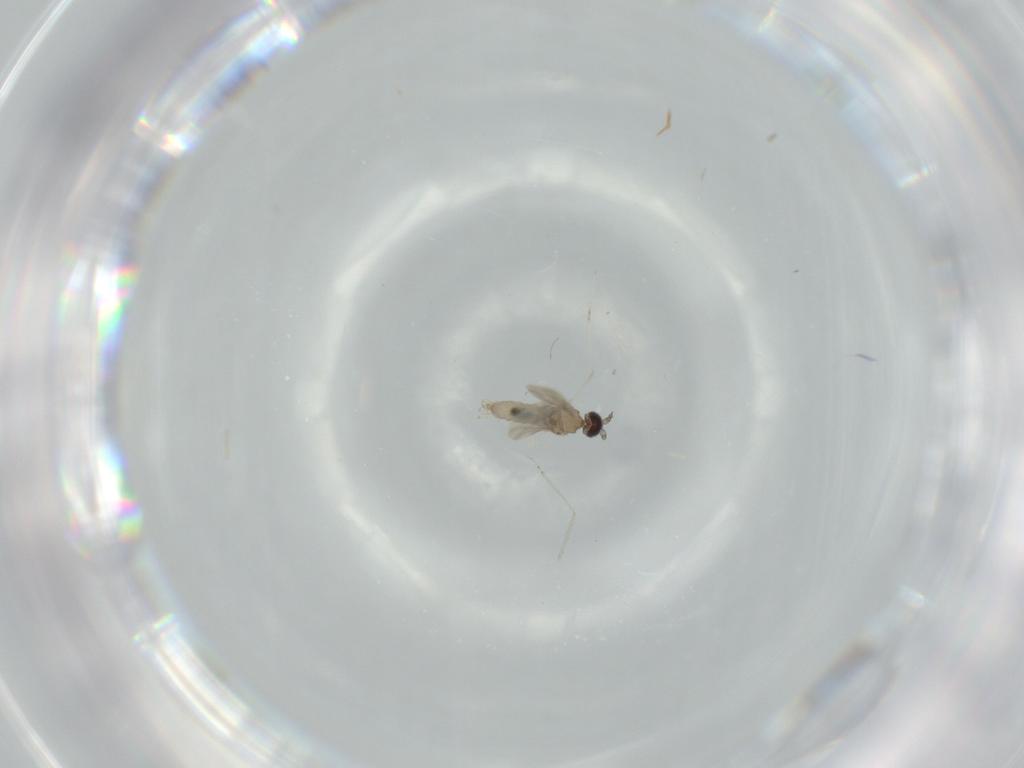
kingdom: Animalia
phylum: Arthropoda
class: Insecta
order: Diptera
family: Cecidomyiidae
